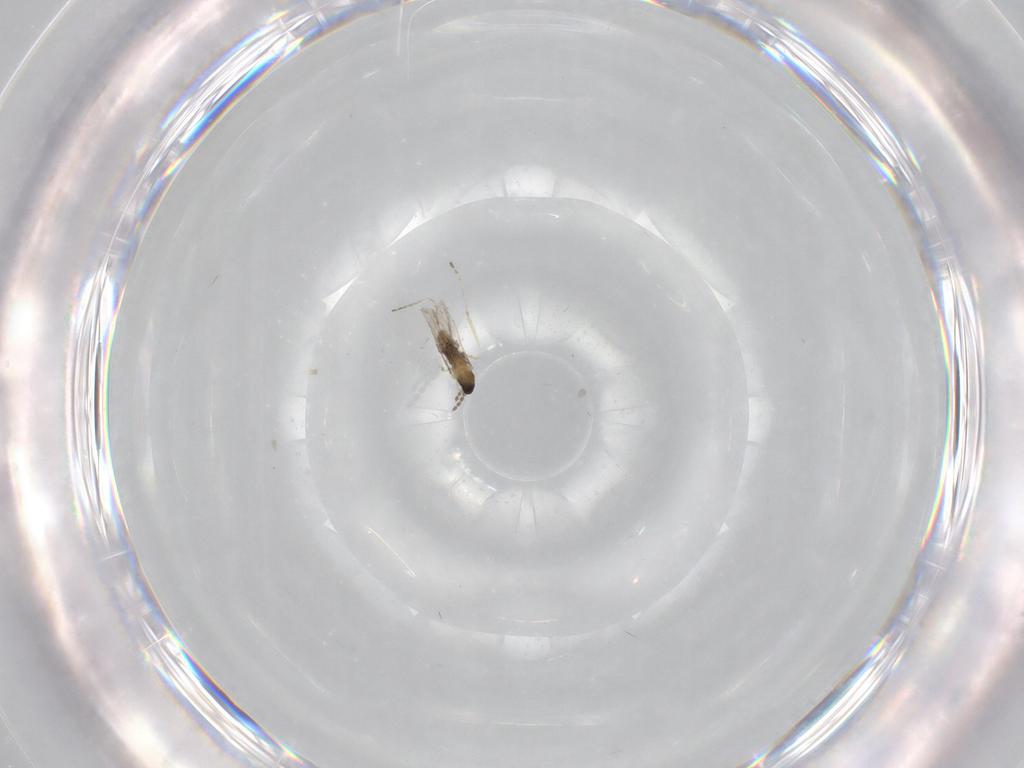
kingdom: Animalia
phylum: Arthropoda
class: Insecta
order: Diptera
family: Cecidomyiidae
